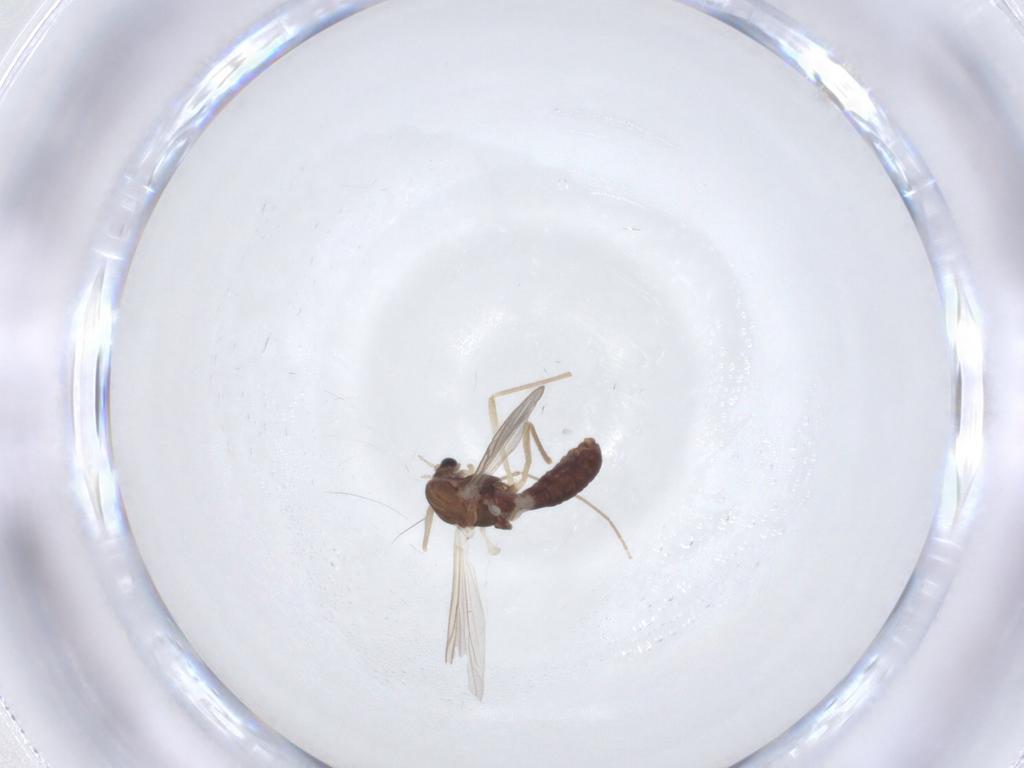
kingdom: Animalia
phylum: Arthropoda
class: Insecta
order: Diptera
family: Chironomidae
